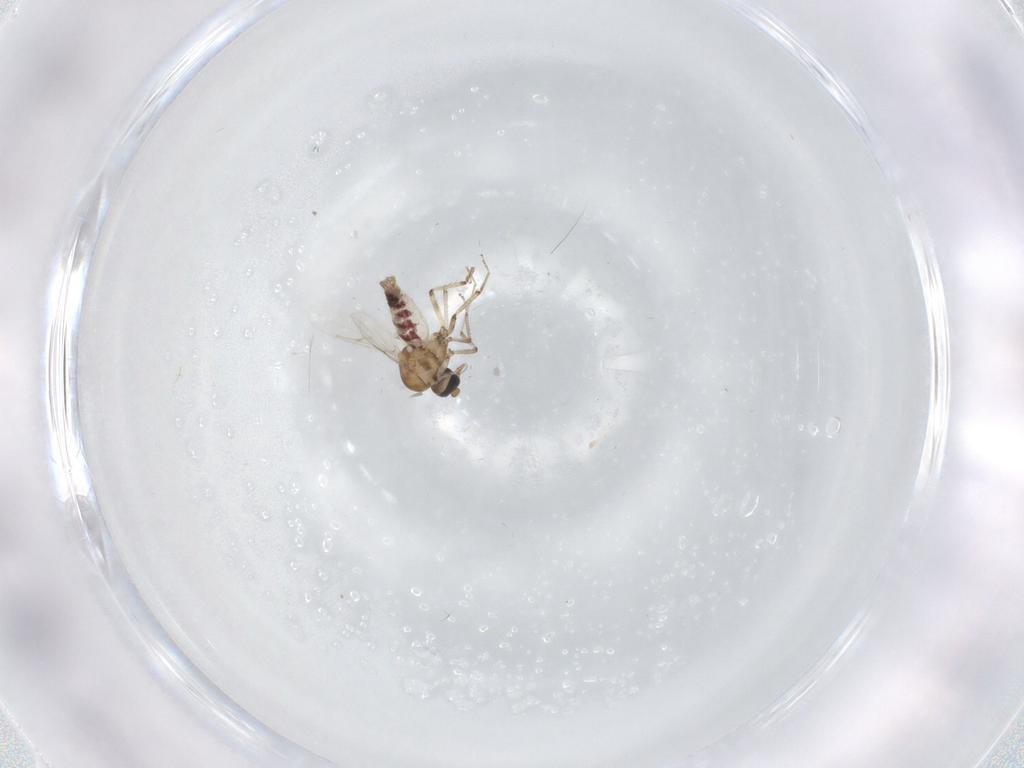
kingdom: Animalia
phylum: Arthropoda
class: Insecta
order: Diptera
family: Ceratopogonidae
